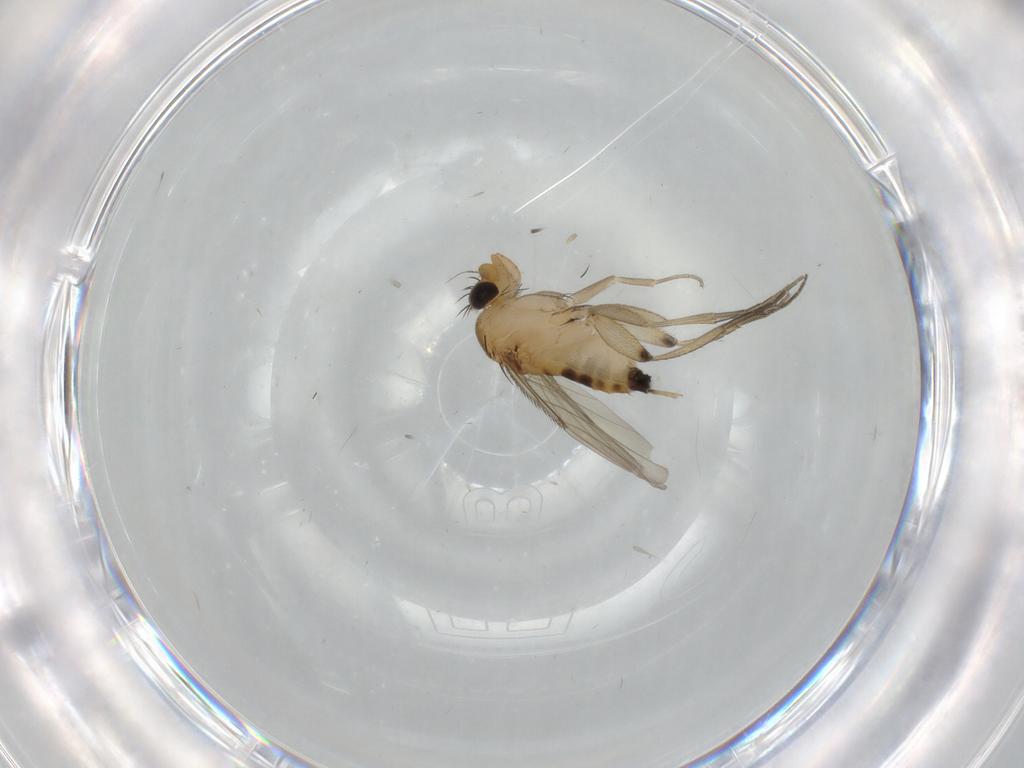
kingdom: Animalia
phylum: Arthropoda
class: Insecta
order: Diptera
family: Phoridae
